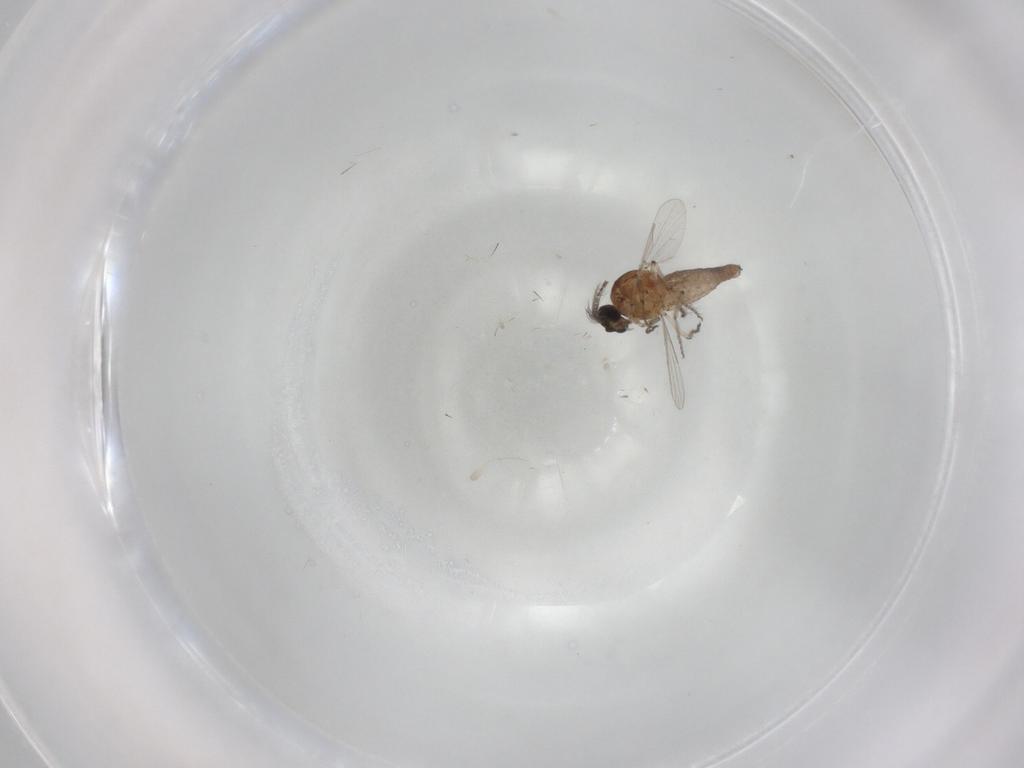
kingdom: Animalia
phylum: Arthropoda
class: Insecta
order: Diptera
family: Ceratopogonidae
